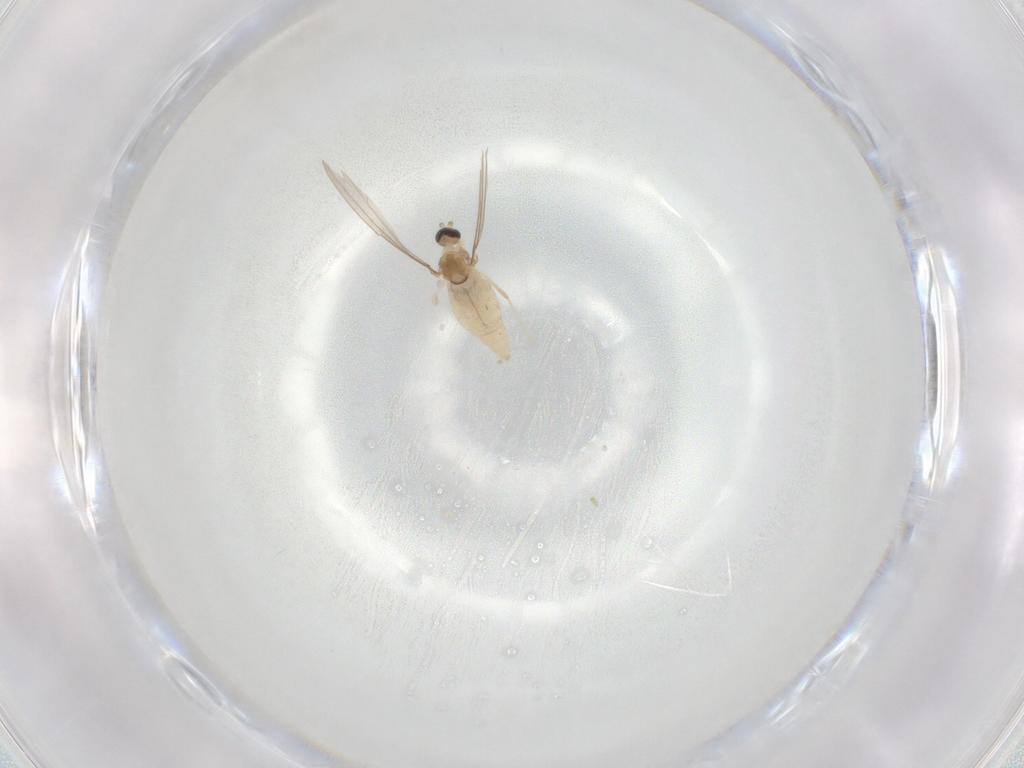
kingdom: Animalia
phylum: Arthropoda
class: Insecta
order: Diptera
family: Cecidomyiidae
